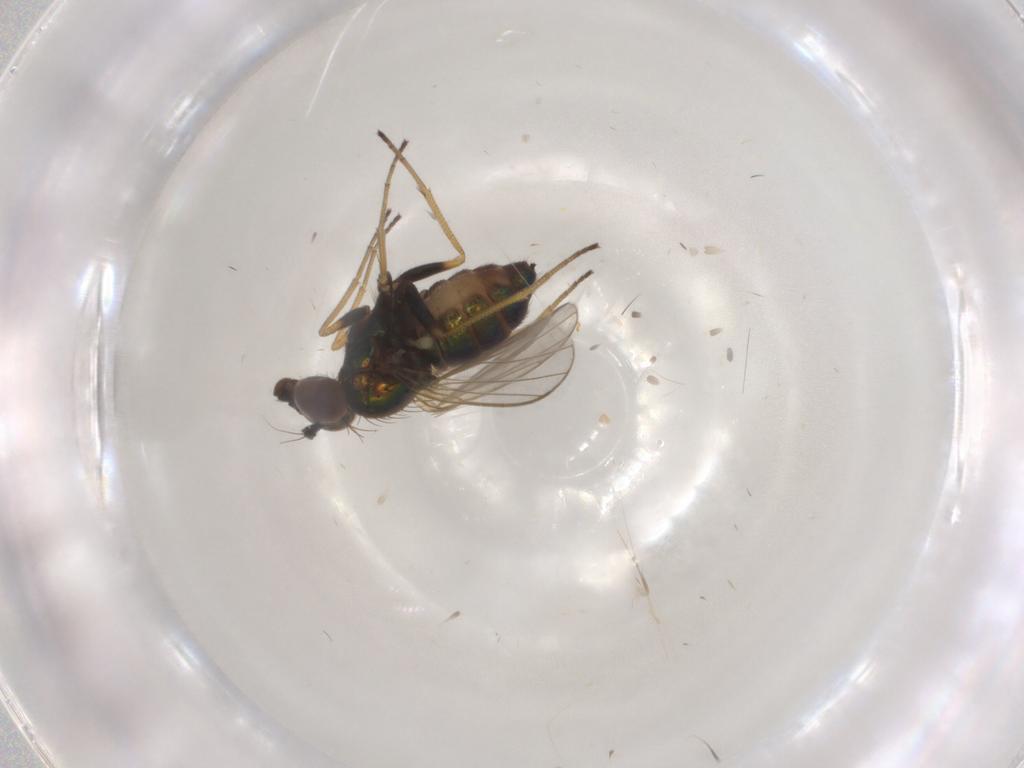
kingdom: Animalia
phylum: Arthropoda
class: Insecta
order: Diptera
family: Dolichopodidae
